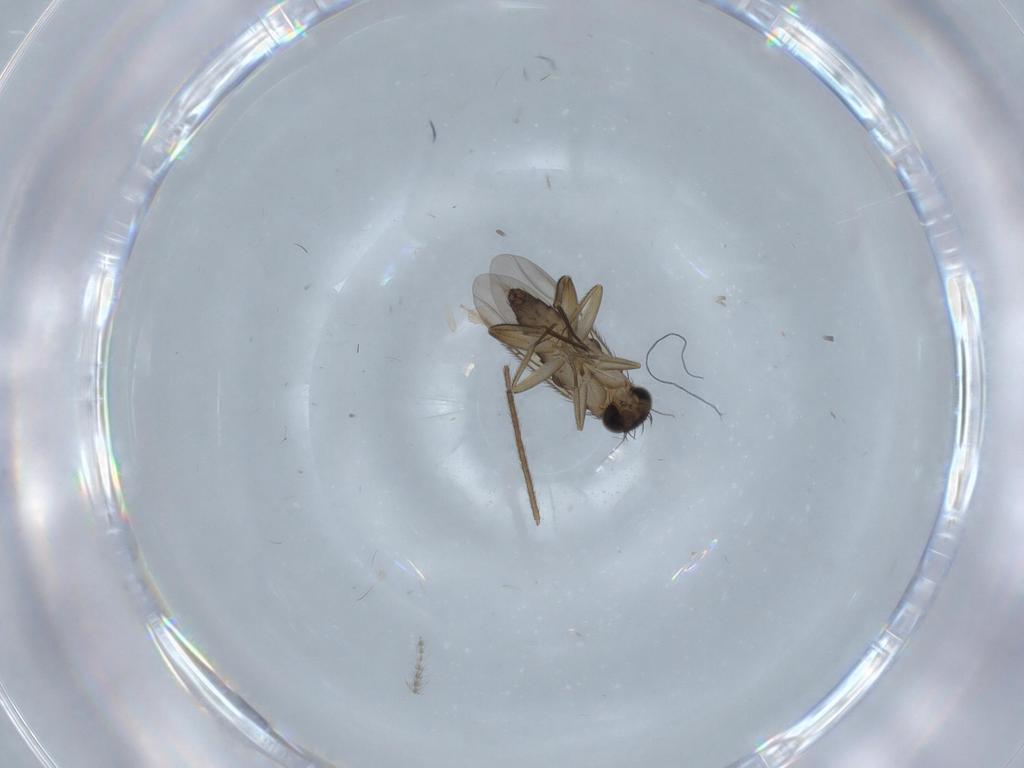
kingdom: Animalia
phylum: Arthropoda
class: Insecta
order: Diptera
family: Phoridae
